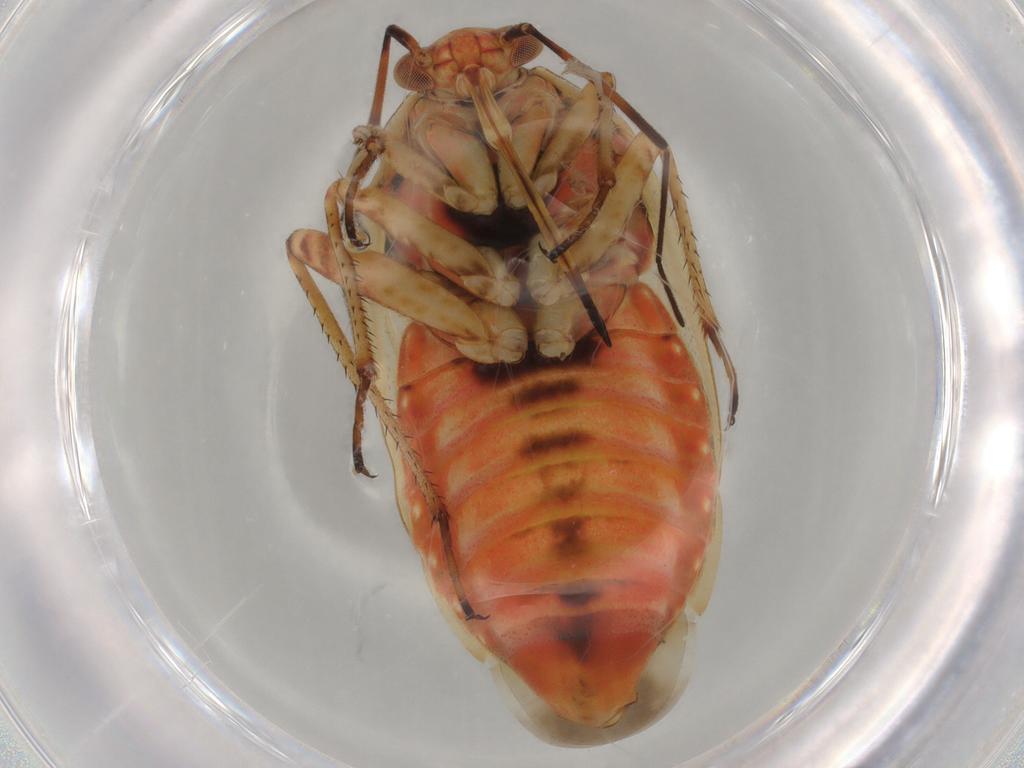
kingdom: Animalia
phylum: Arthropoda
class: Insecta
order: Hemiptera
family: Miridae
